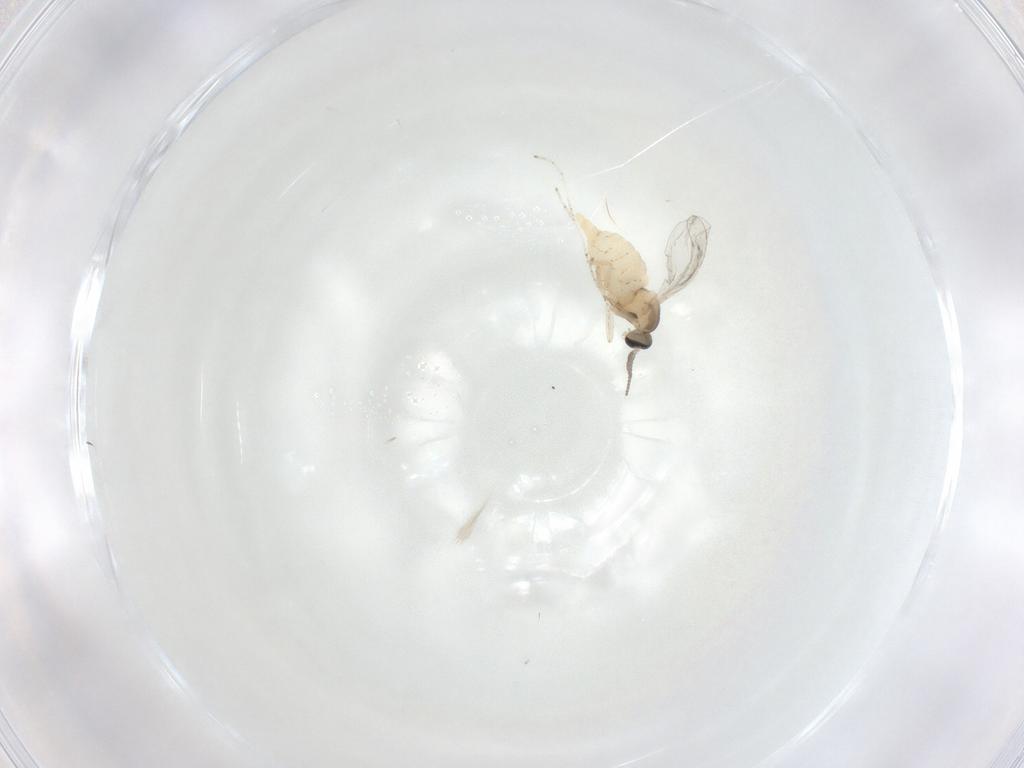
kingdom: Animalia
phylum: Arthropoda
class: Insecta
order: Diptera
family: Cecidomyiidae
